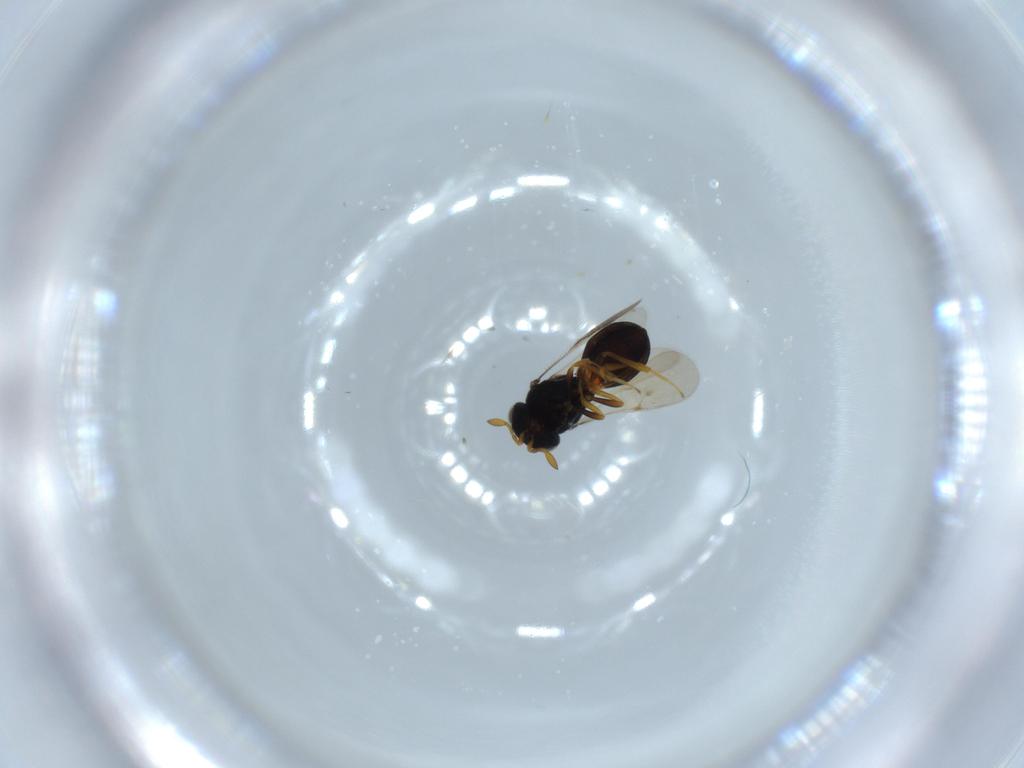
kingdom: Animalia
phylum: Arthropoda
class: Insecta
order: Hymenoptera
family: Scelionidae
